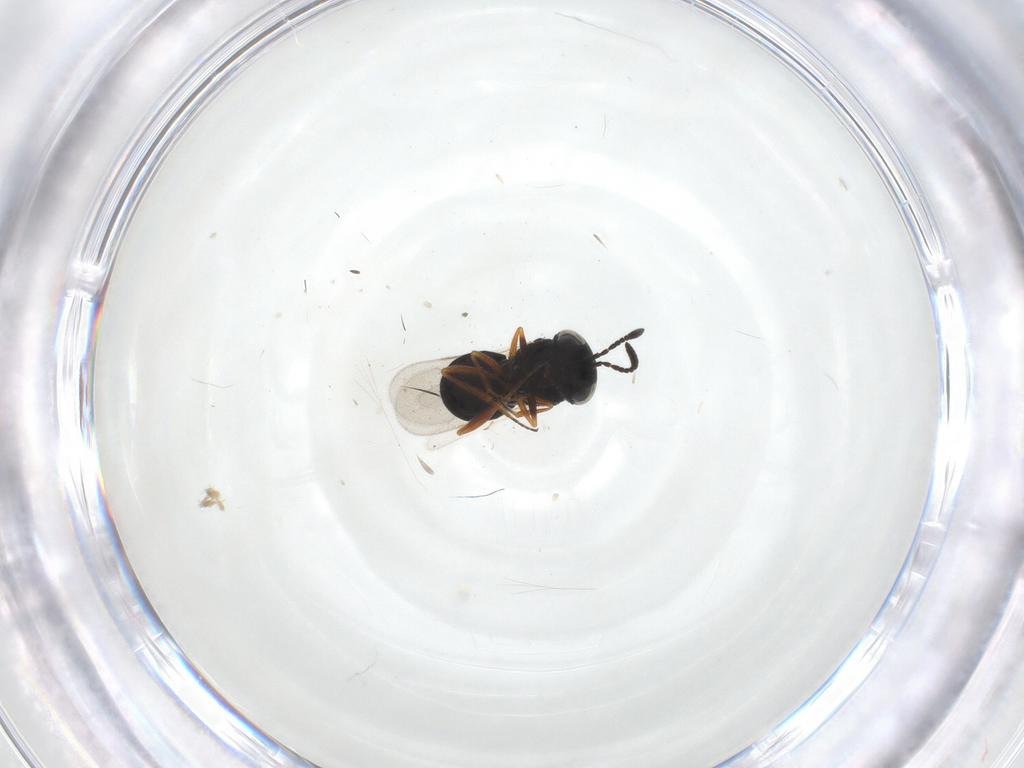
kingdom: Animalia
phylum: Arthropoda
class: Insecta
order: Hymenoptera
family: Scelionidae
